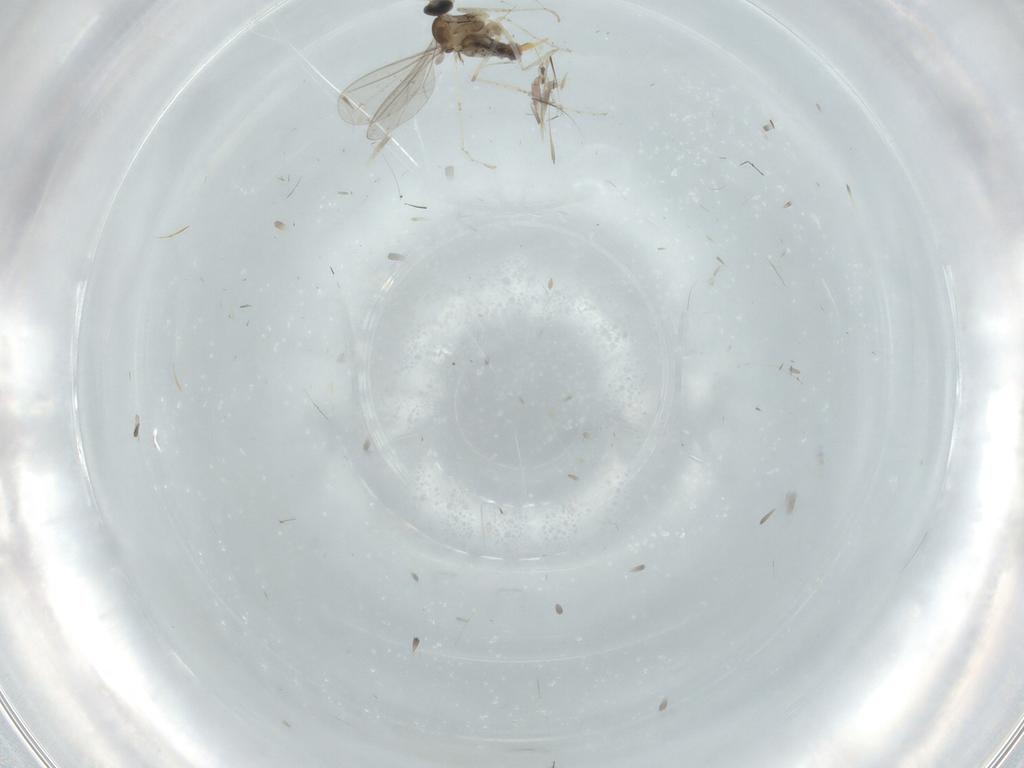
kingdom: Animalia
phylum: Arthropoda
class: Insecta
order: Diptera
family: Cecidomyiidae
